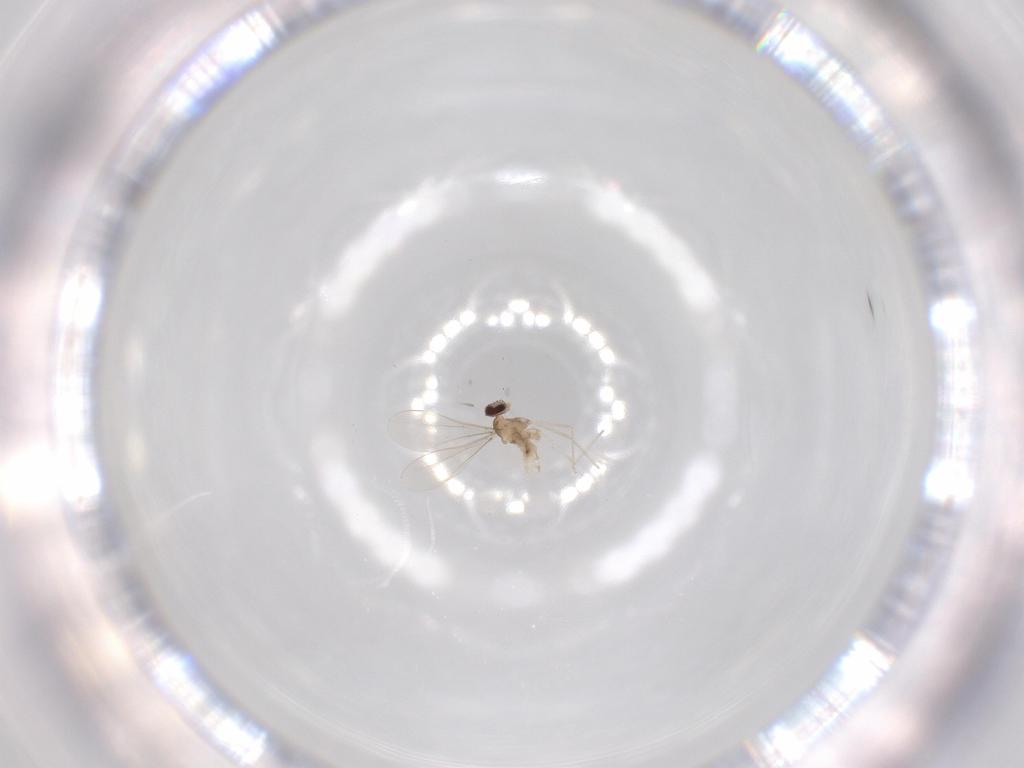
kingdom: Animalia
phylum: Arthropoda
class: Insecta
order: Diptera
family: Cecidomyiidae
